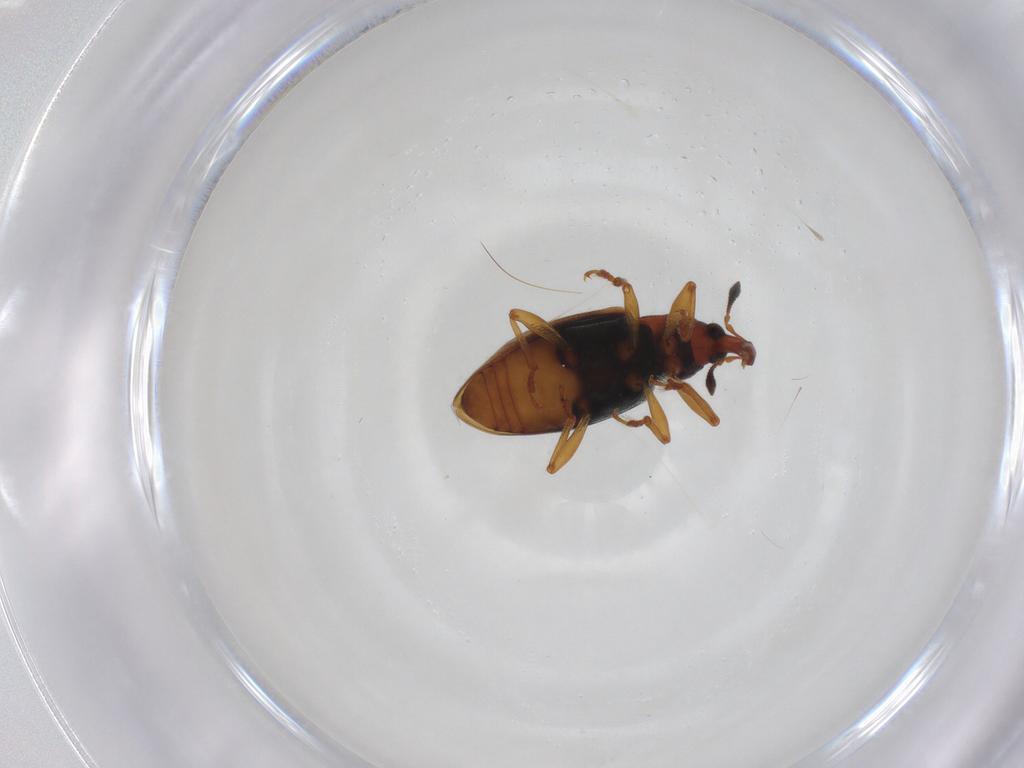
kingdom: Animalia
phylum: Arthropoda
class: Insecta
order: Coleoptera
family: Curculionidae
